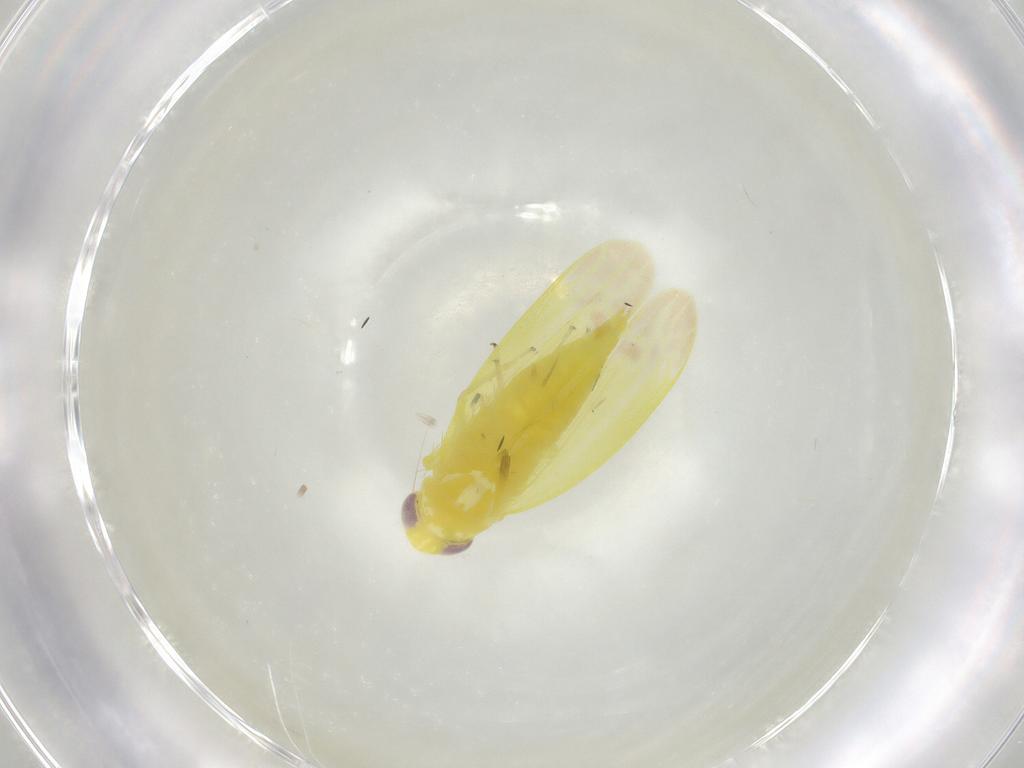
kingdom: Animalia
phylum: Arthropoda
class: Insecta
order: Hemiptera
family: Cicadellidae
